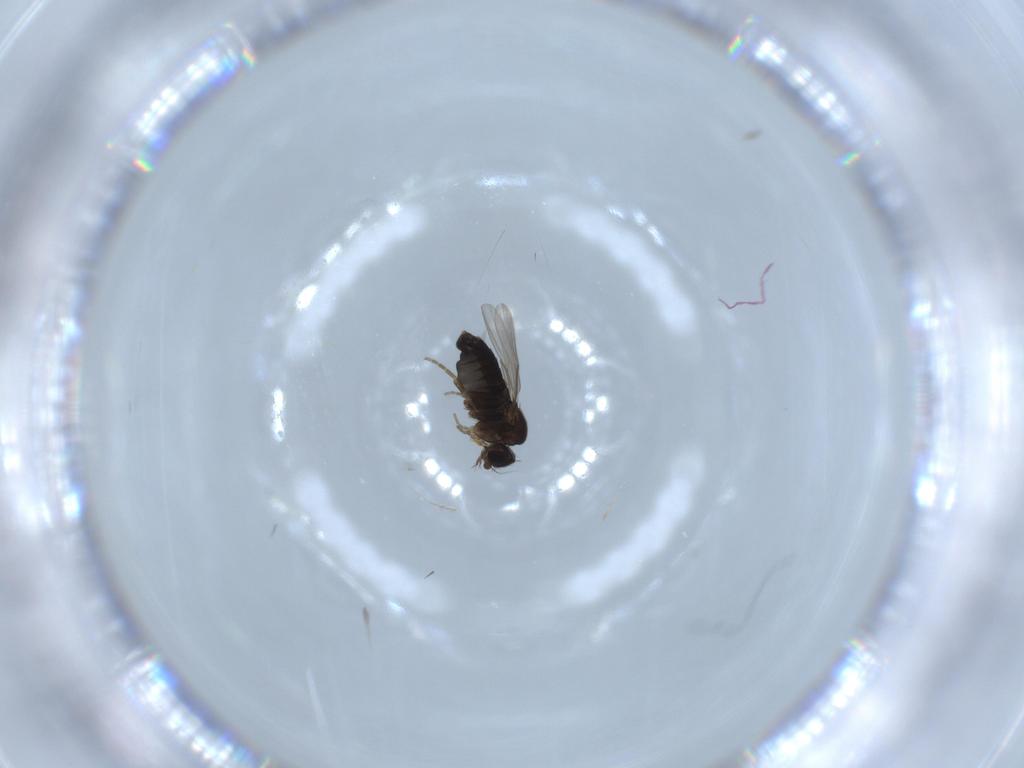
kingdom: Animalia
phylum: Arthropoda
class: Insecta
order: Diptera
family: Phoridae
